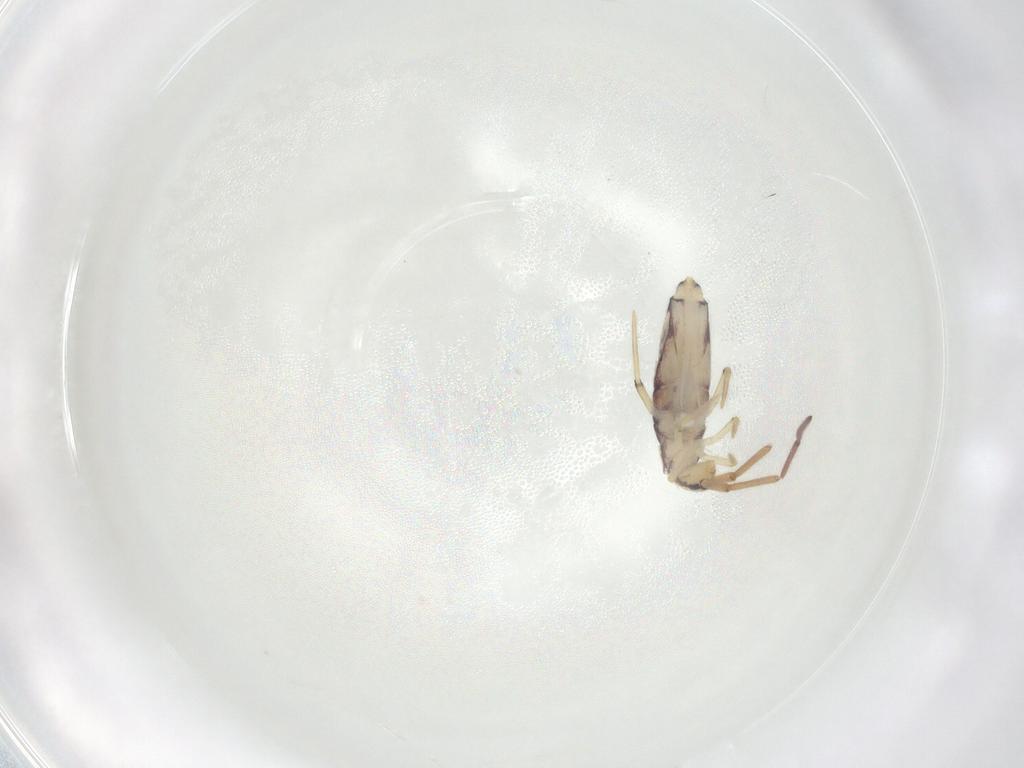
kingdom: Animalia
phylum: Arthropoda
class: Collembola
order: Entomobryomorpha
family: Entomobryidae
